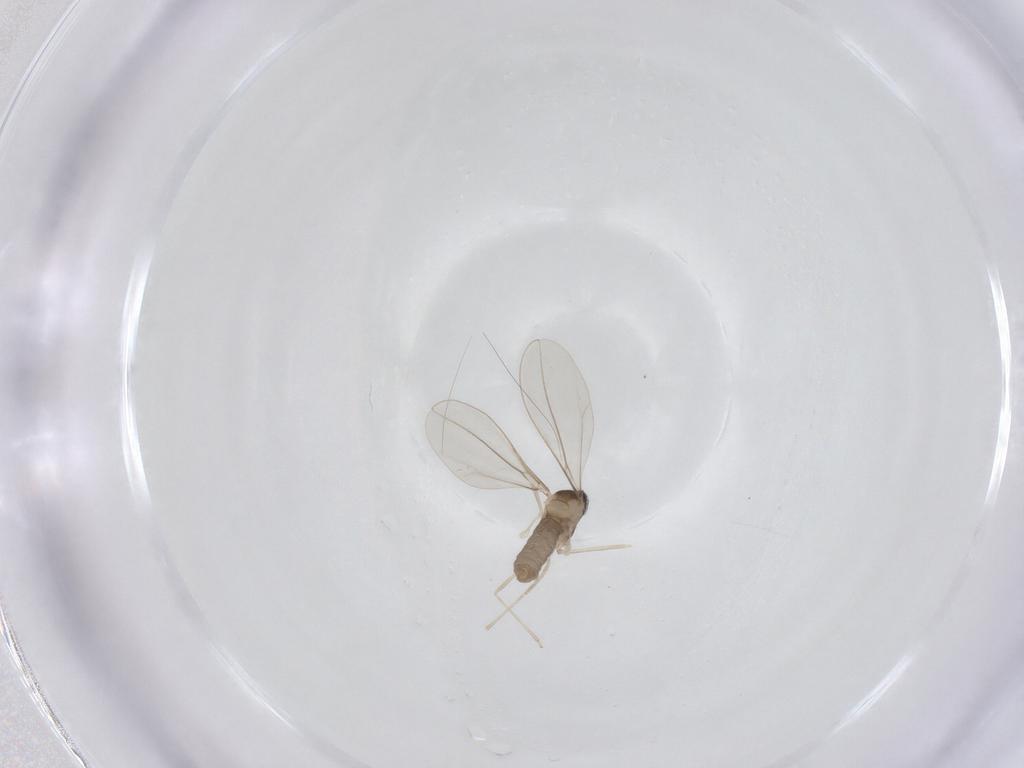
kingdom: Animalia
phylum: Arthropoda
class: Insecta
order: Diptera
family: Cecidomyiidae
